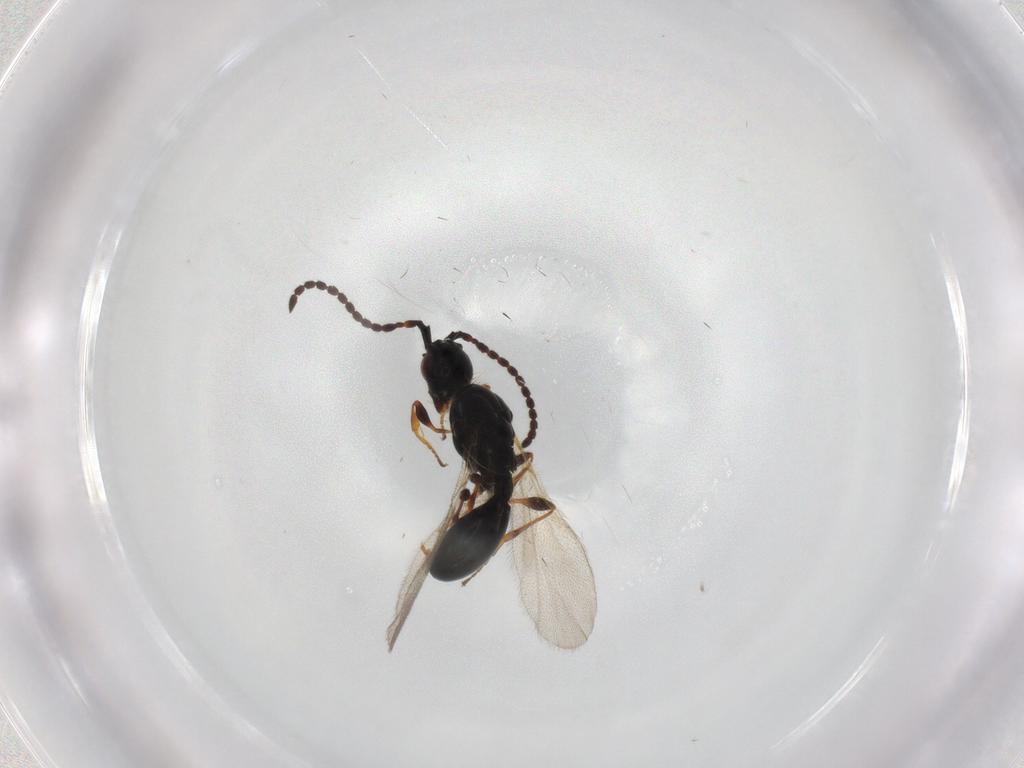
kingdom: Animalia
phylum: Arthropoda
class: Insecta
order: Hymenoptera
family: Diapriidae
